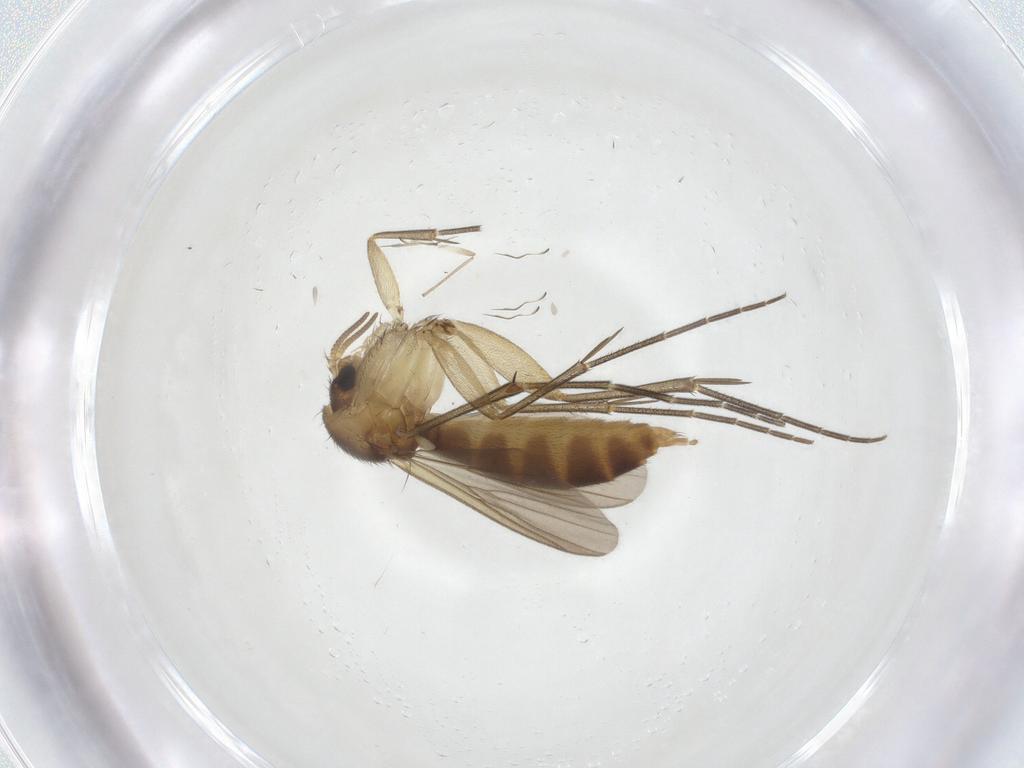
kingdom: Animalia
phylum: Arthropoda
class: Insecta
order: Diptera
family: Keroplatidae
